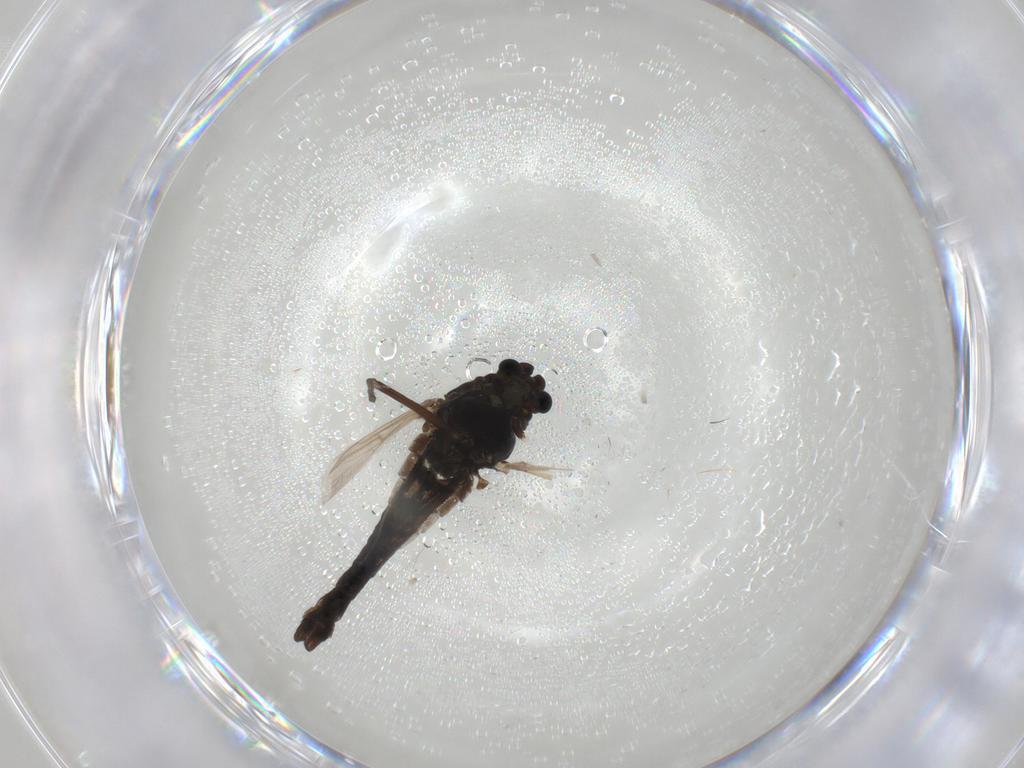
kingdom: Animalia
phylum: Arthropoda
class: Insecta
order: Diptera
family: Chironomidae
